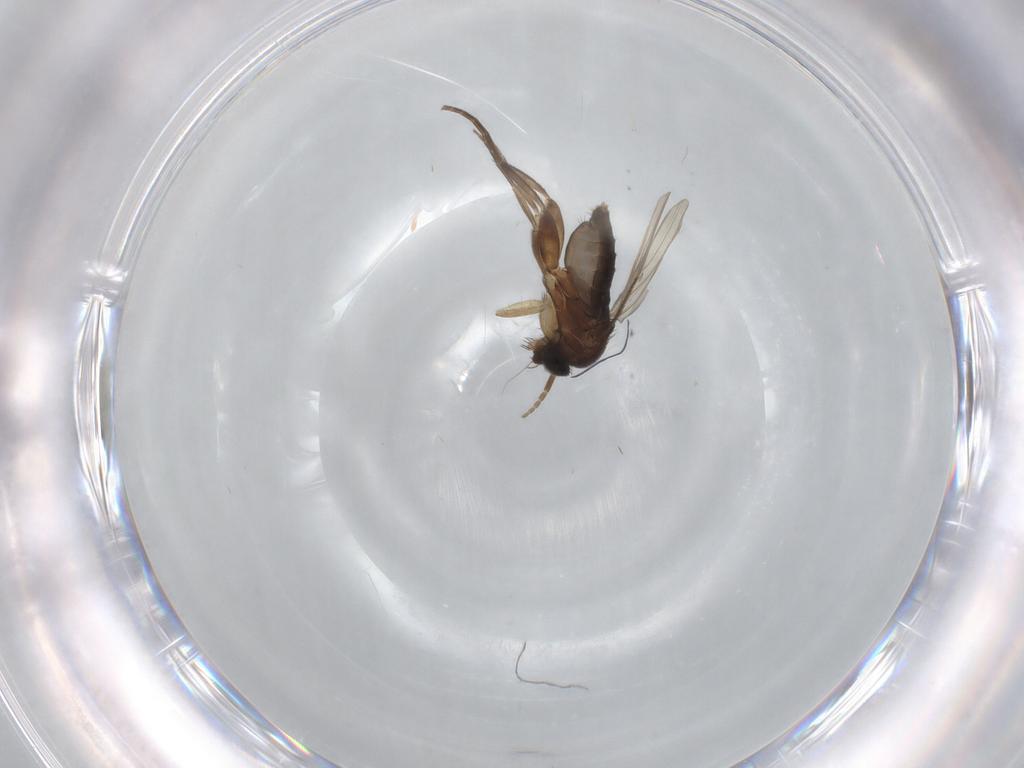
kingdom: Animalia
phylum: Arthropoda
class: Insecta
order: Diptera
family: Phoridae
